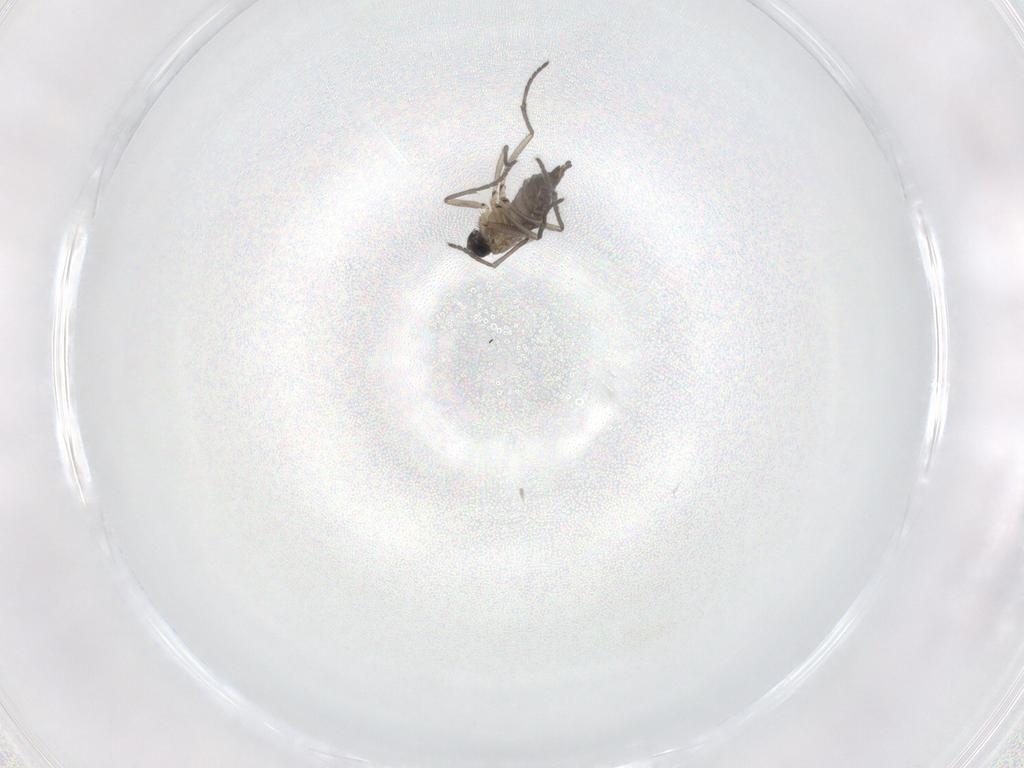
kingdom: Animalia
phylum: Arthropoda
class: Insecta
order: Diptera
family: Sciaridae
